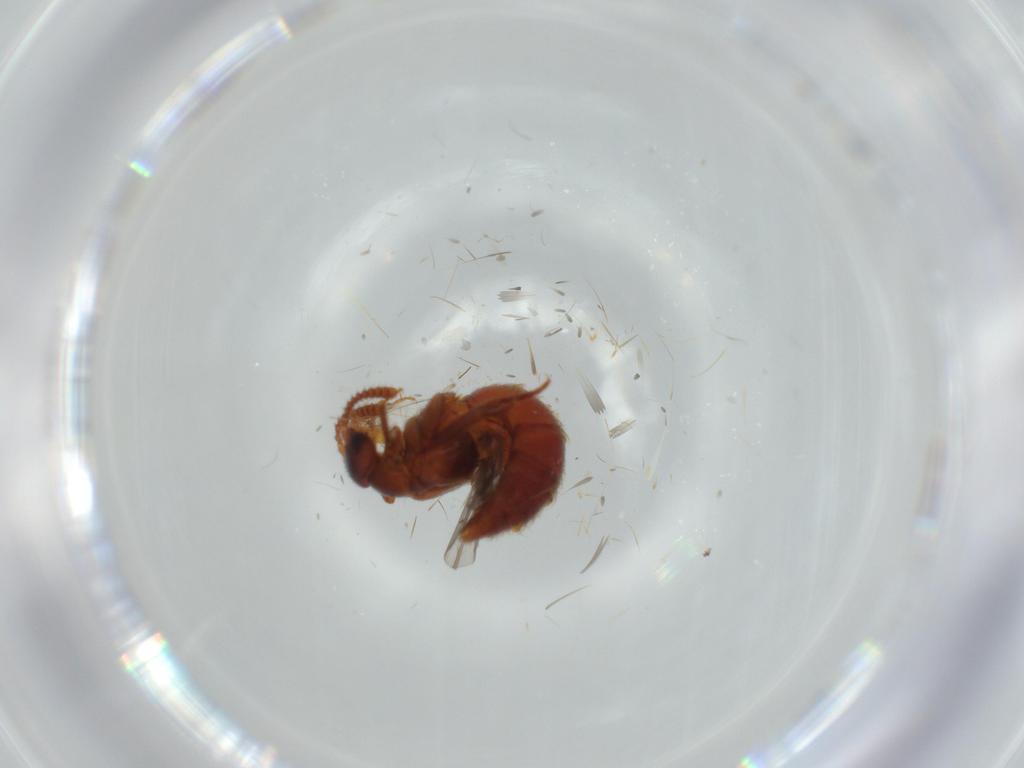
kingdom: Animalia
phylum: Arthropoda
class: Insecta
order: Coleoptera
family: Staphylinidae
